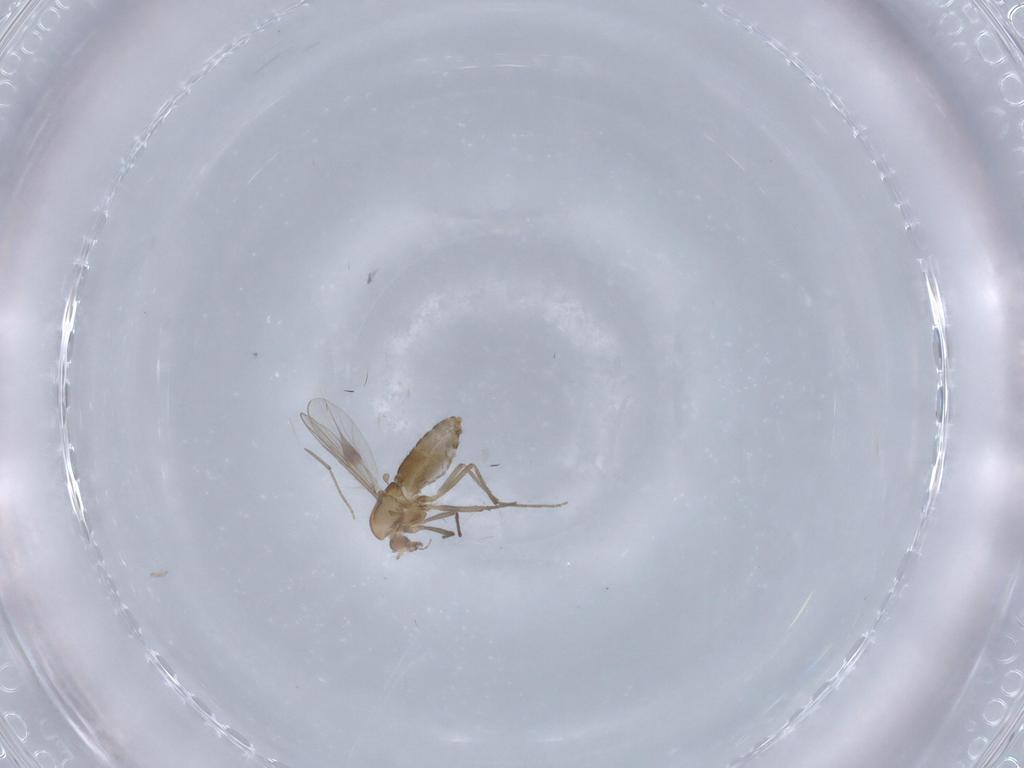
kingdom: Animalia
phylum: Arthropoda
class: Insecta
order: Diptera
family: Chironomidae
